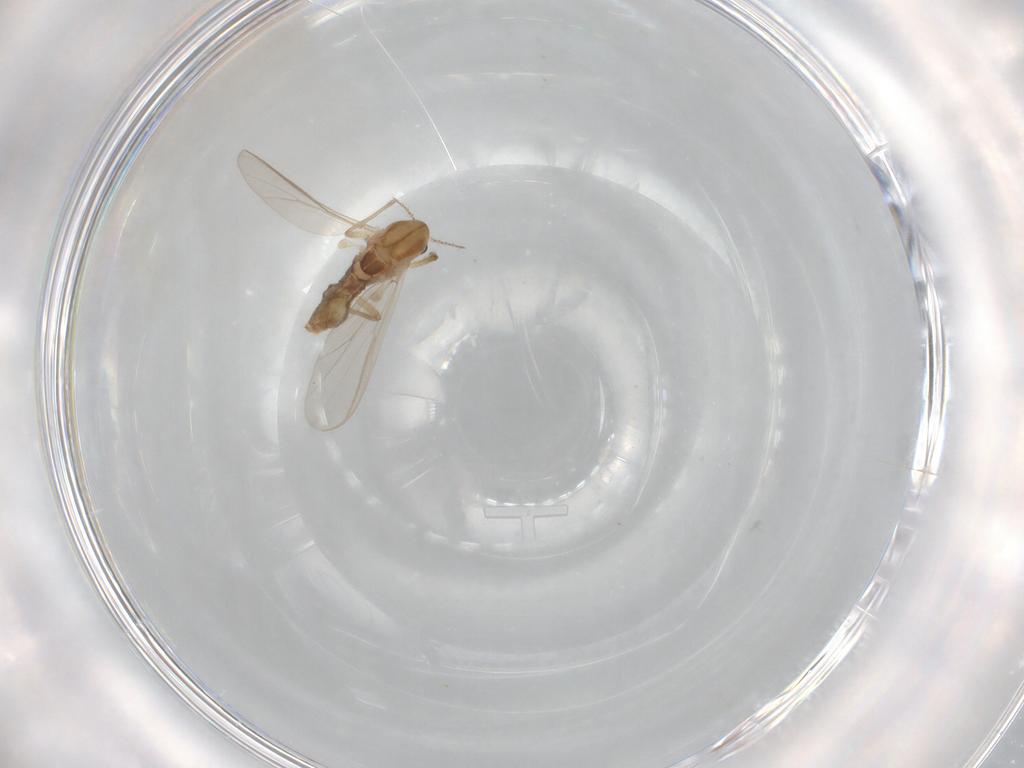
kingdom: Animalia
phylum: Arthropoda
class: Insecta
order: Diptera
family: Chironomidae
